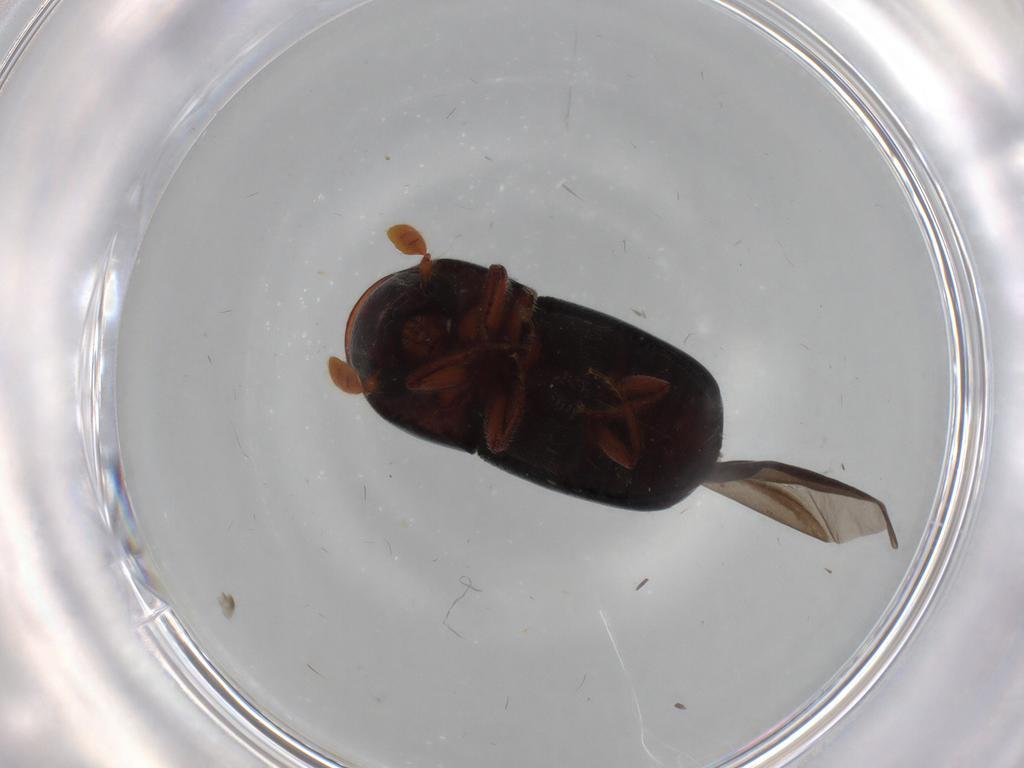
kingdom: Animalia
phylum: Arthropoda
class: Insecta
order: Coleoptera
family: Curculionidae
